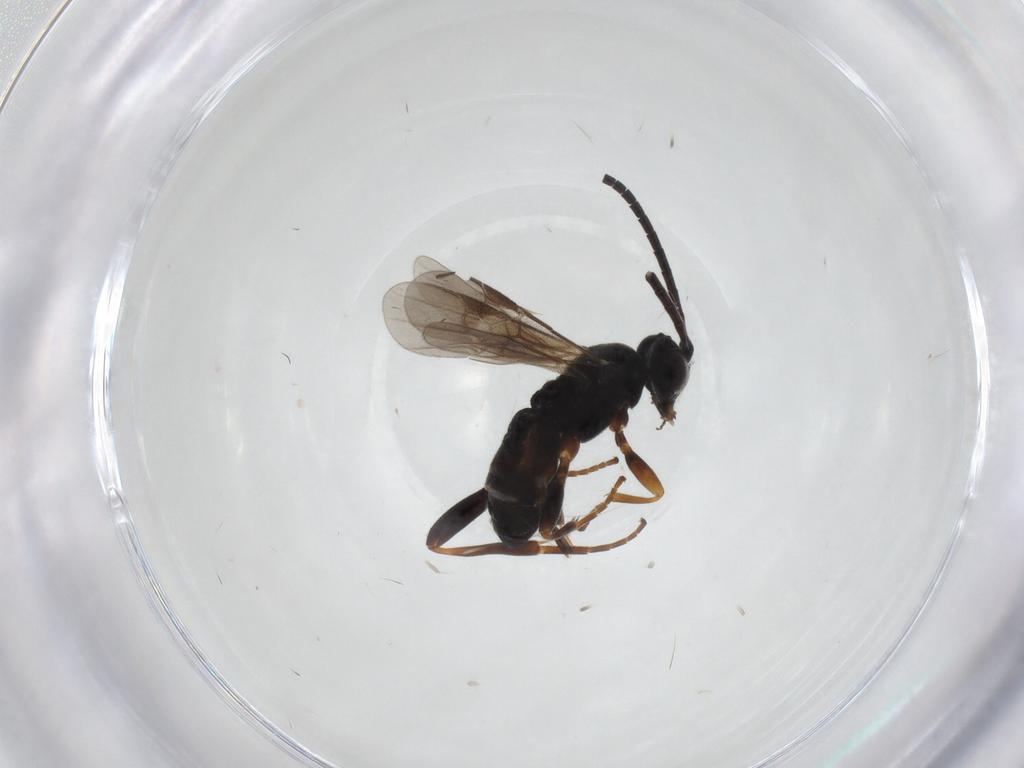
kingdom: Animalia
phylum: Arthropoda
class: Insecta
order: Hymenoptera
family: Braconidae
